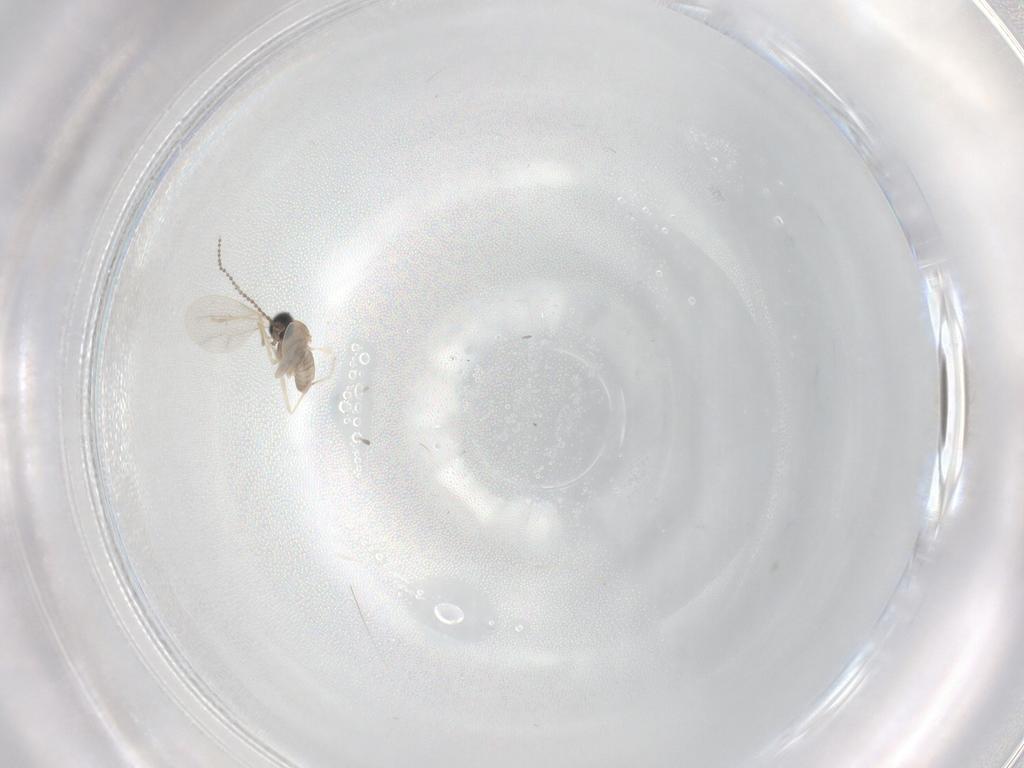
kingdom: Animalia
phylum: Arthropoda
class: Insecta
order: Diptera
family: Cecidomyiidae
